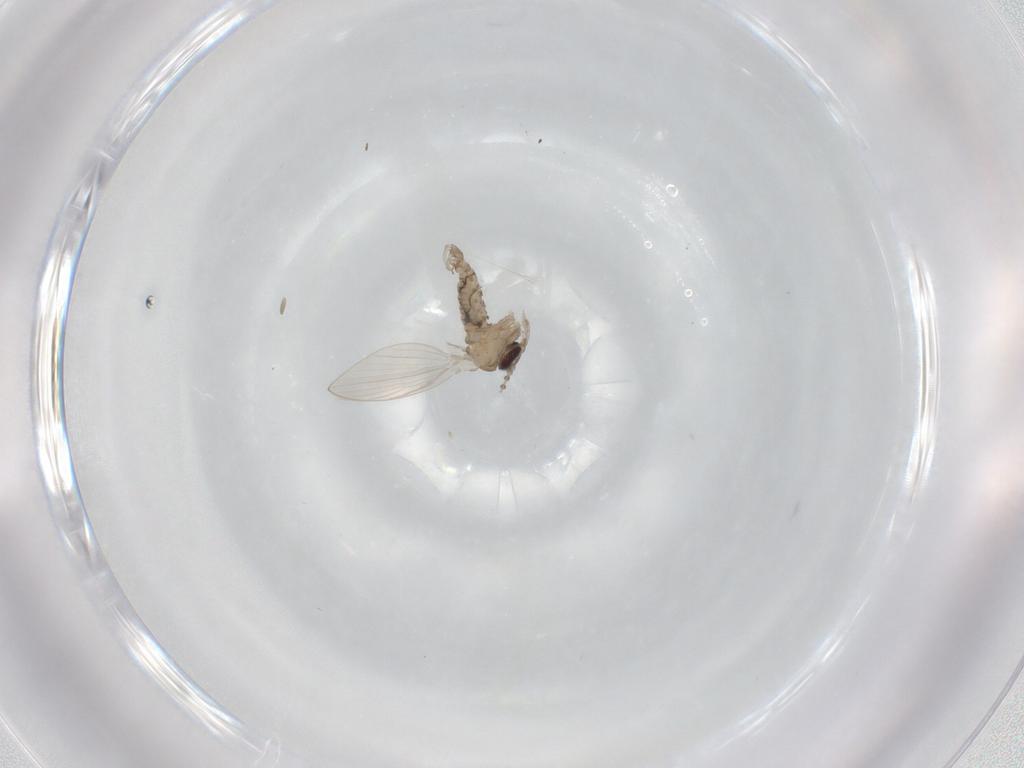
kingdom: Animalia
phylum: Arthropoda
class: Insecta
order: Diptera
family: Psychodidae
